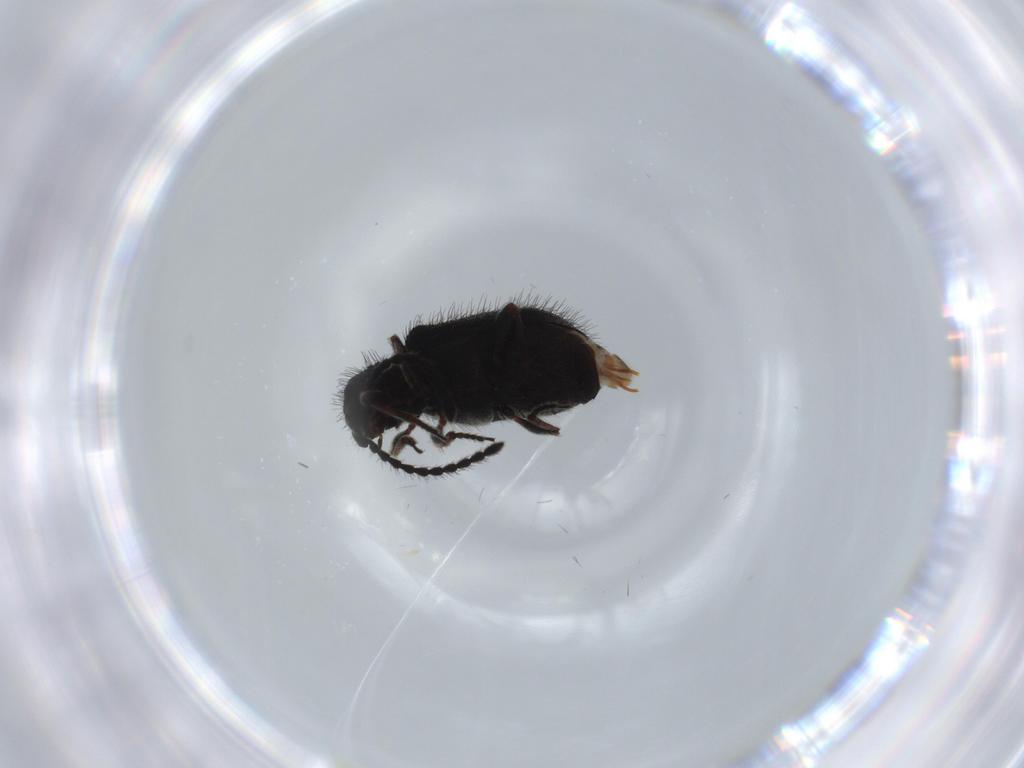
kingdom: Animalia
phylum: Arthropoda
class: Insecta
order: Coleoptera
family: Ptinidae
